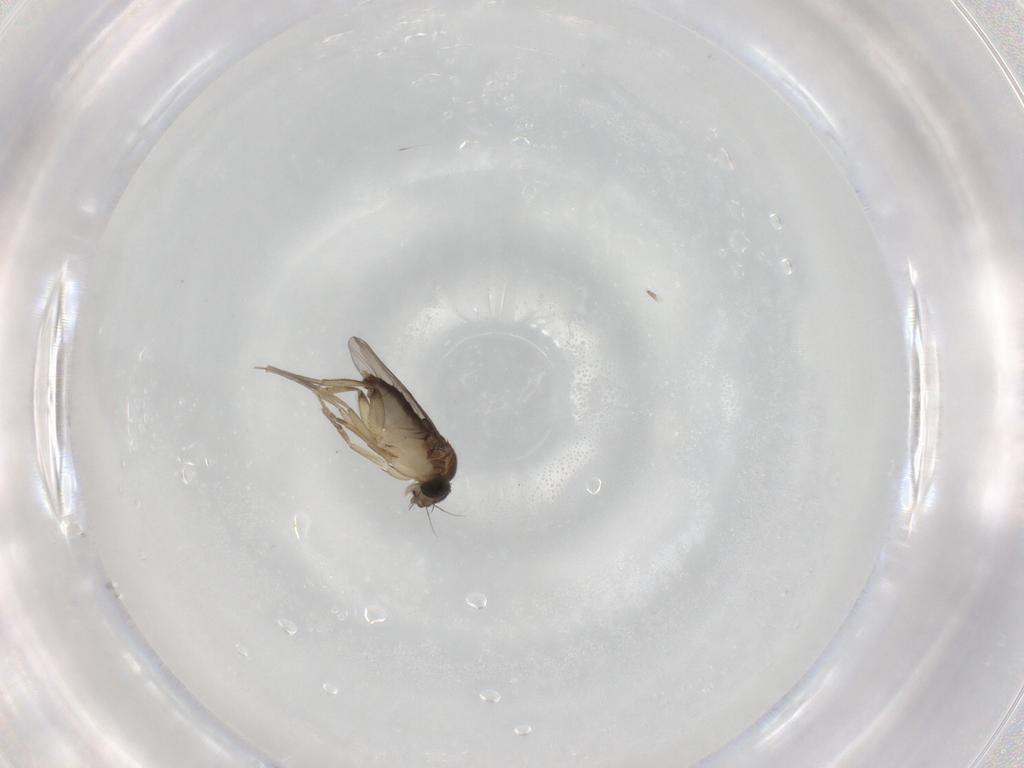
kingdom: Animalia
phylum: Arthropoda
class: Insecta
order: Diptera
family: Phoridae
